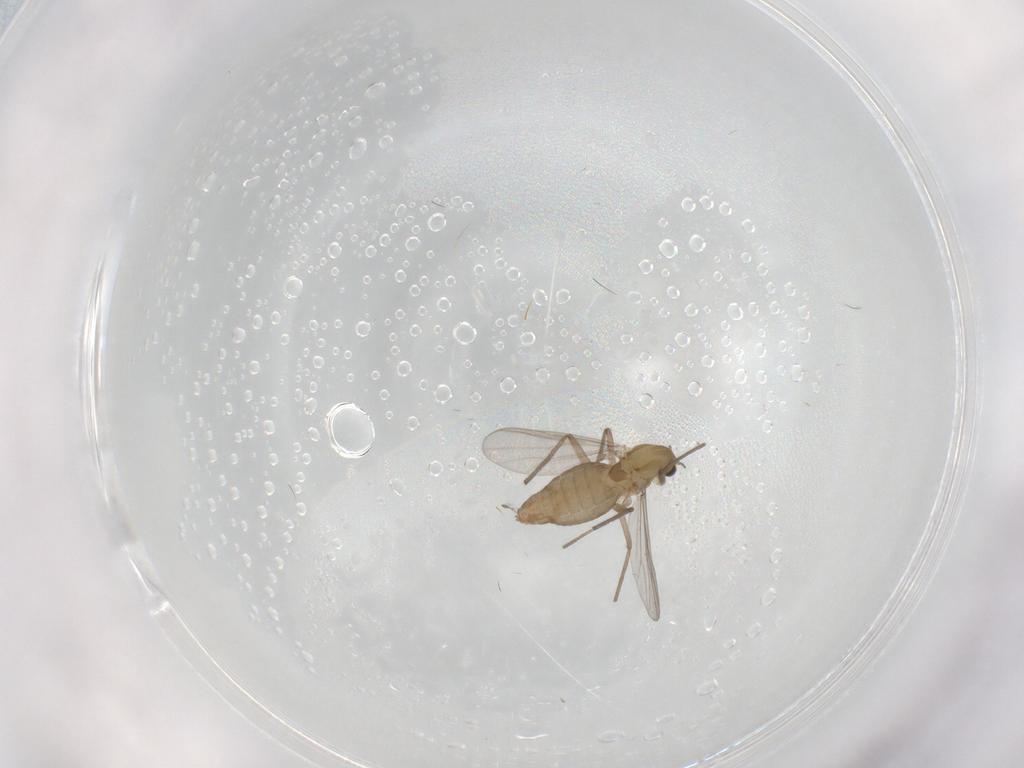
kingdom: Animalia
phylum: Arthropoda
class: Insecta
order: Diptera
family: Chironomidae
